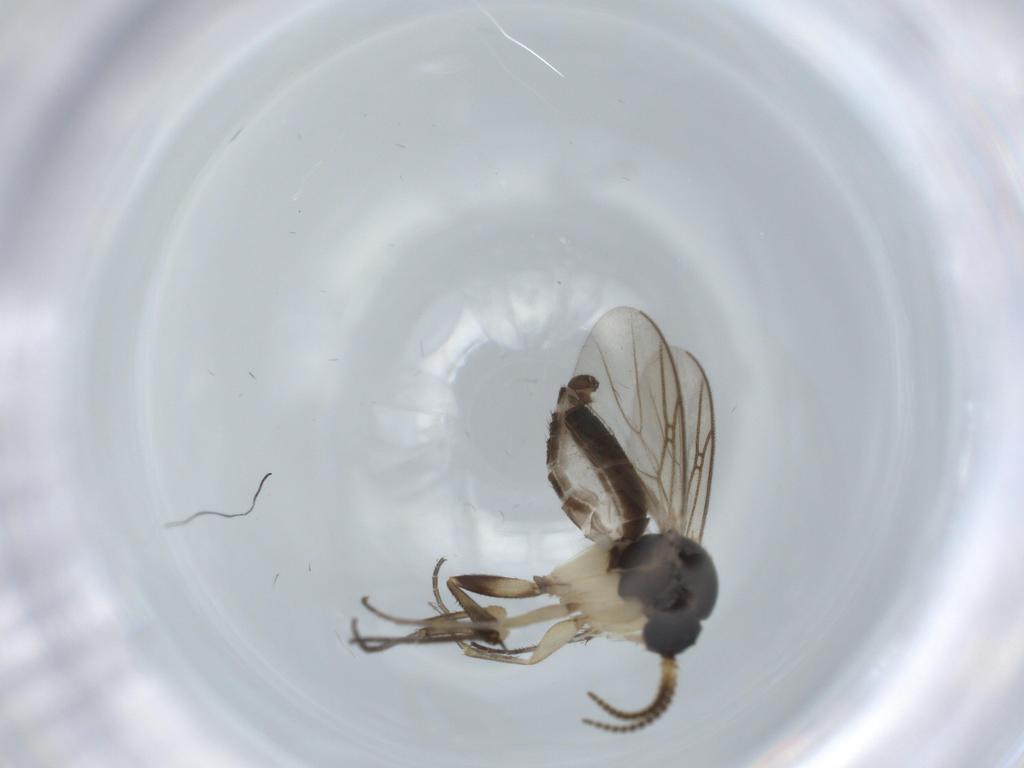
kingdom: Animalia
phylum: Arthropoda
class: Insecta
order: Diptera
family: Mycetophilidae
